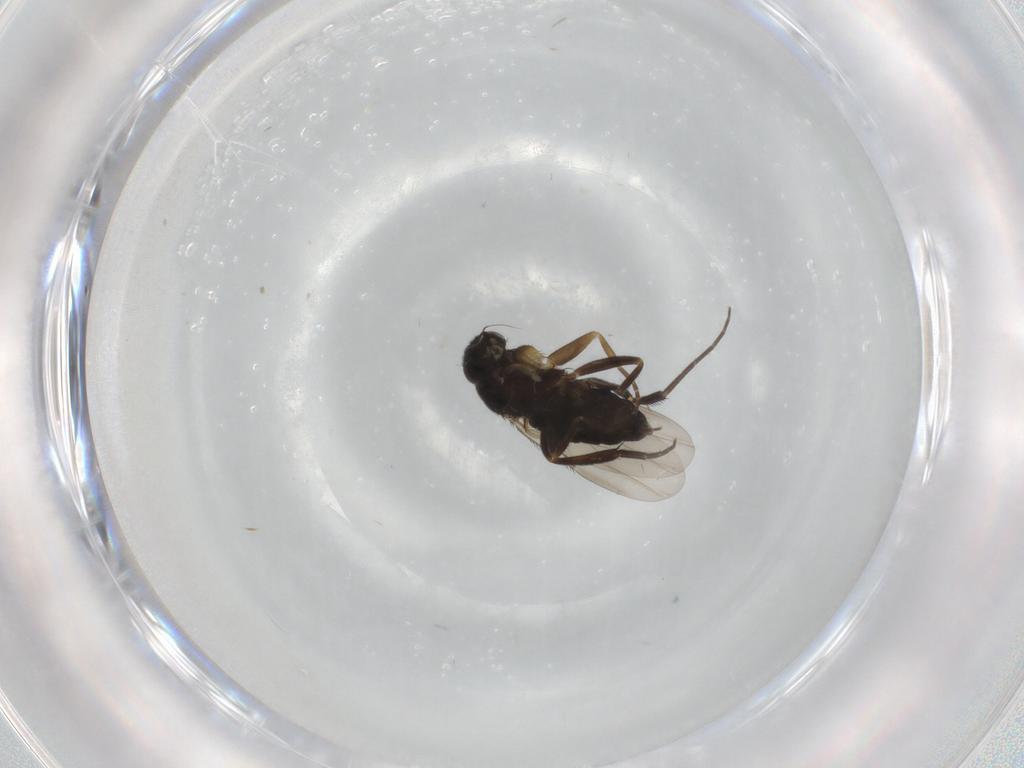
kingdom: Animalia
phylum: Arthropoda
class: Insecta
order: Diptera
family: Phoridae
